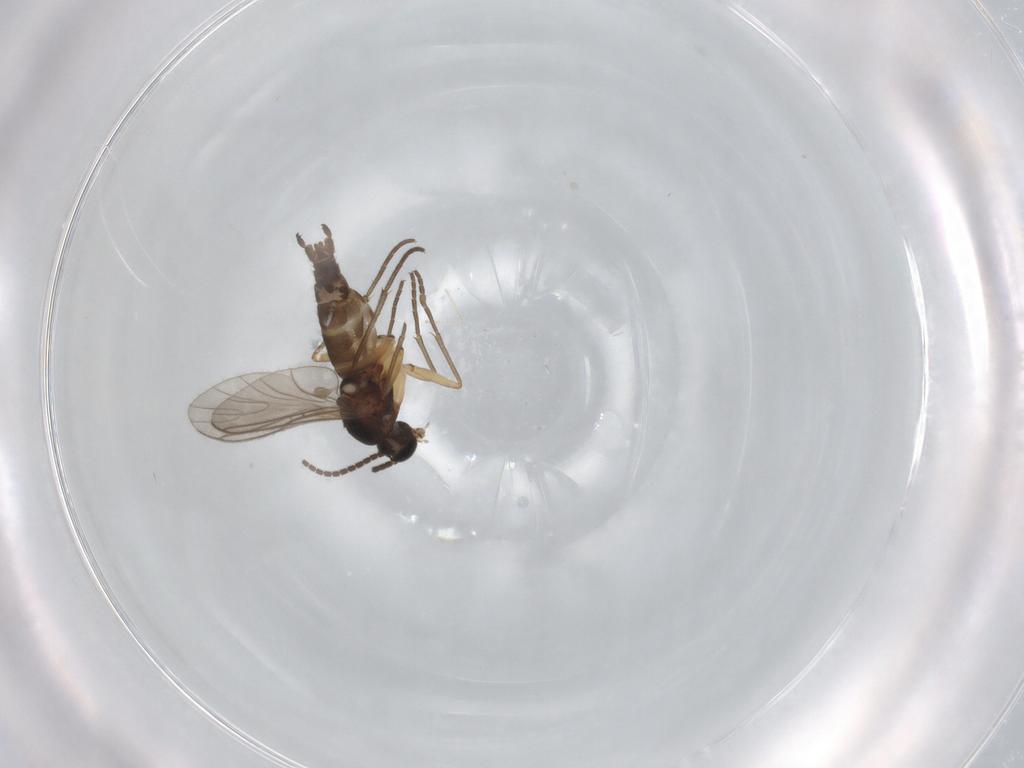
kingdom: Animalia
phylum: Arthropoda
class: Insecta
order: Diptera
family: Sciaridae
